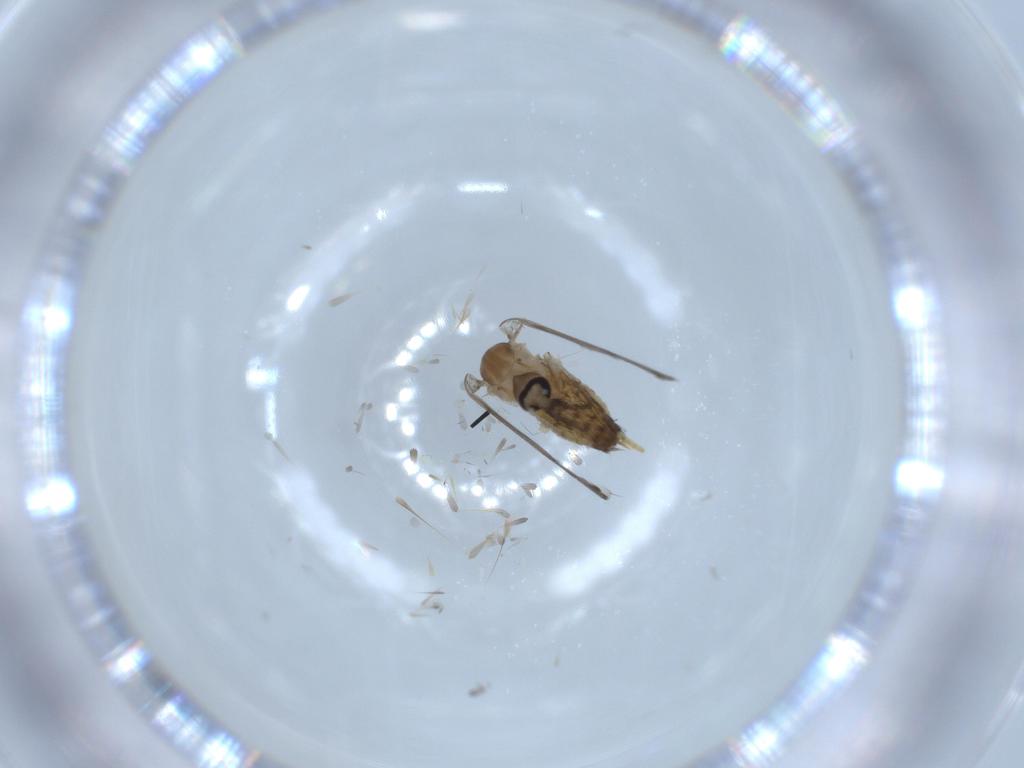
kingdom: Animalia
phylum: Arthropoda
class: Insecta
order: Diptera
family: Psychodidae
